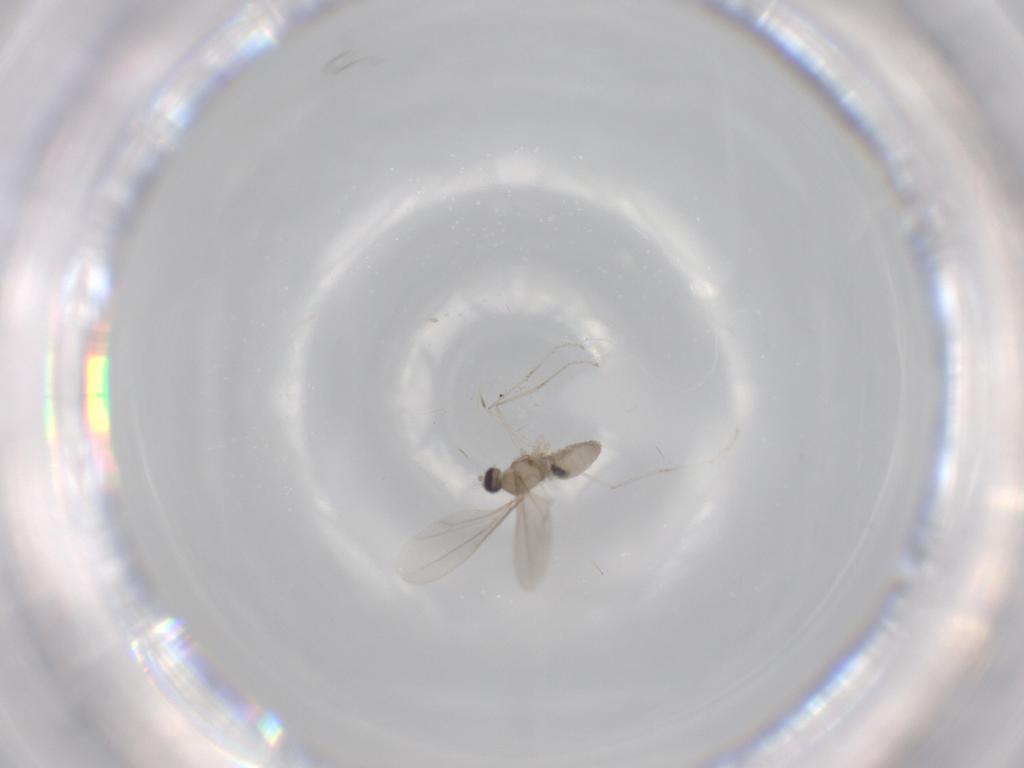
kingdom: Animalia
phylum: Arthropoda
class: Insecta
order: Diptera
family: Cecidomyiidae
